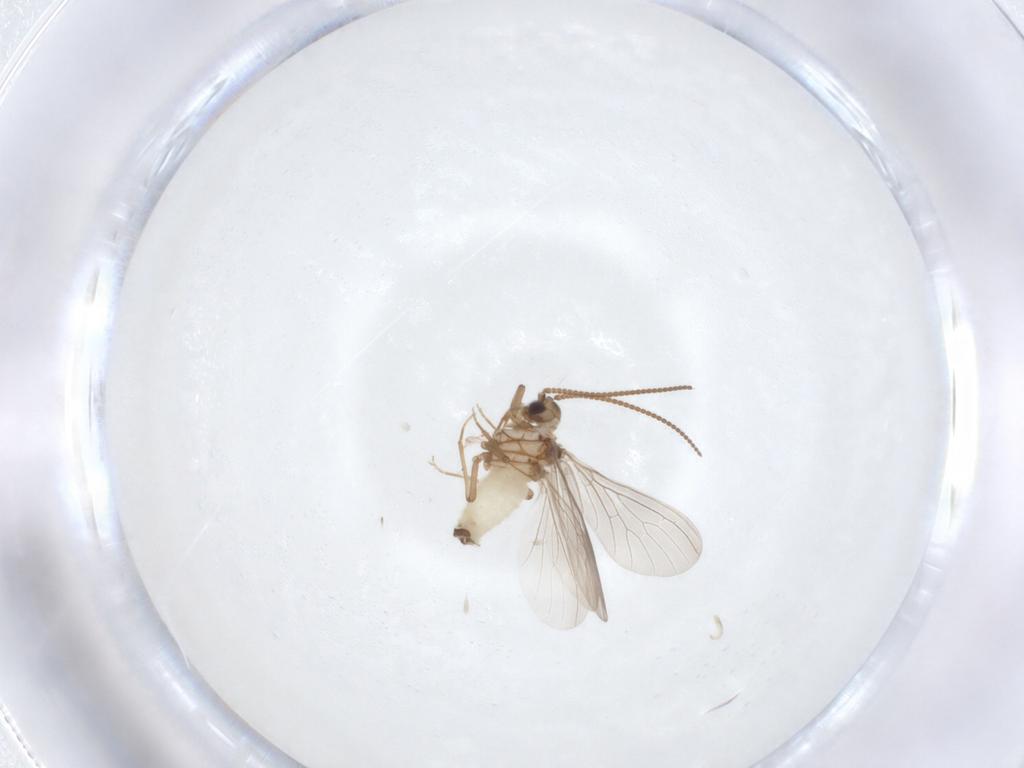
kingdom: Animalia
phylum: Arthropoda
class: Insecta
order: Neuroptera
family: Coniopterygidae
